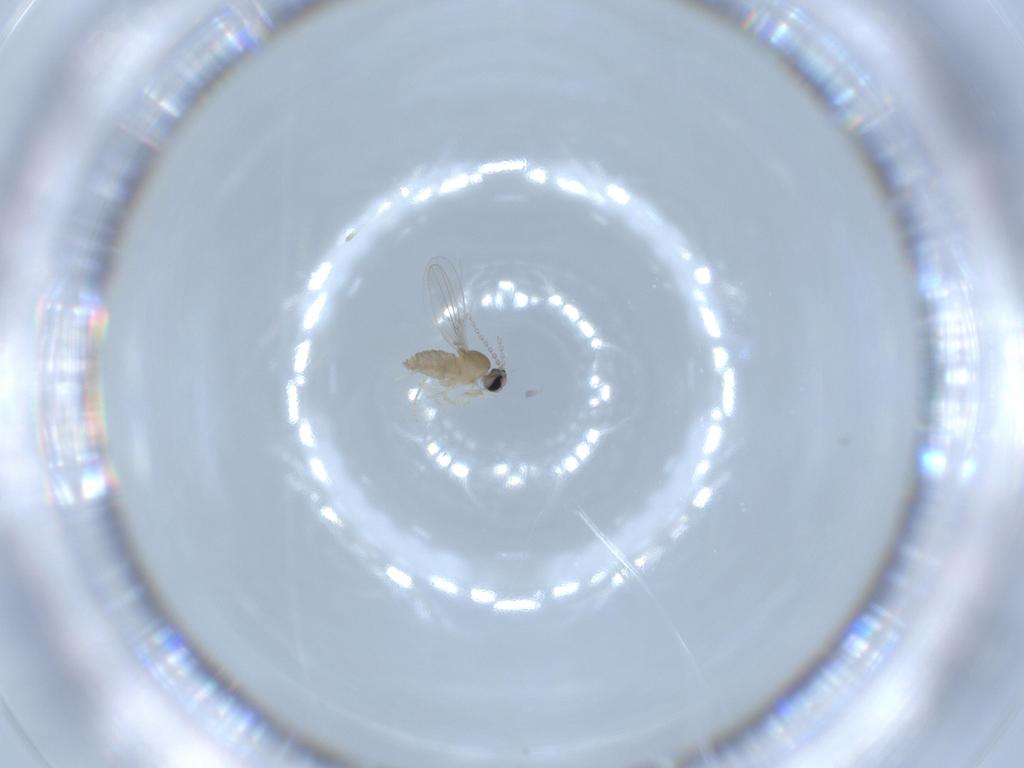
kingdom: Animalia
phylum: Arthropoda
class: Insecta
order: Diptera
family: Cecidomyiidae
